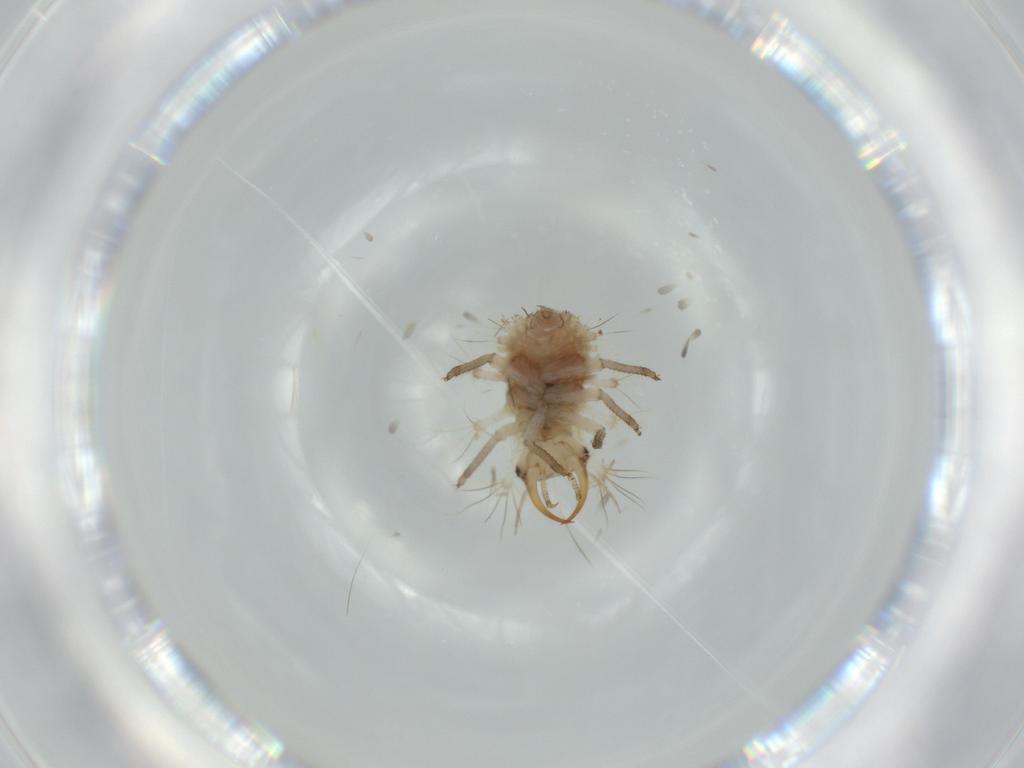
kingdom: Animalia
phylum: Arthropoda
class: Insecta
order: Neuroptera
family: Chrysopidae
